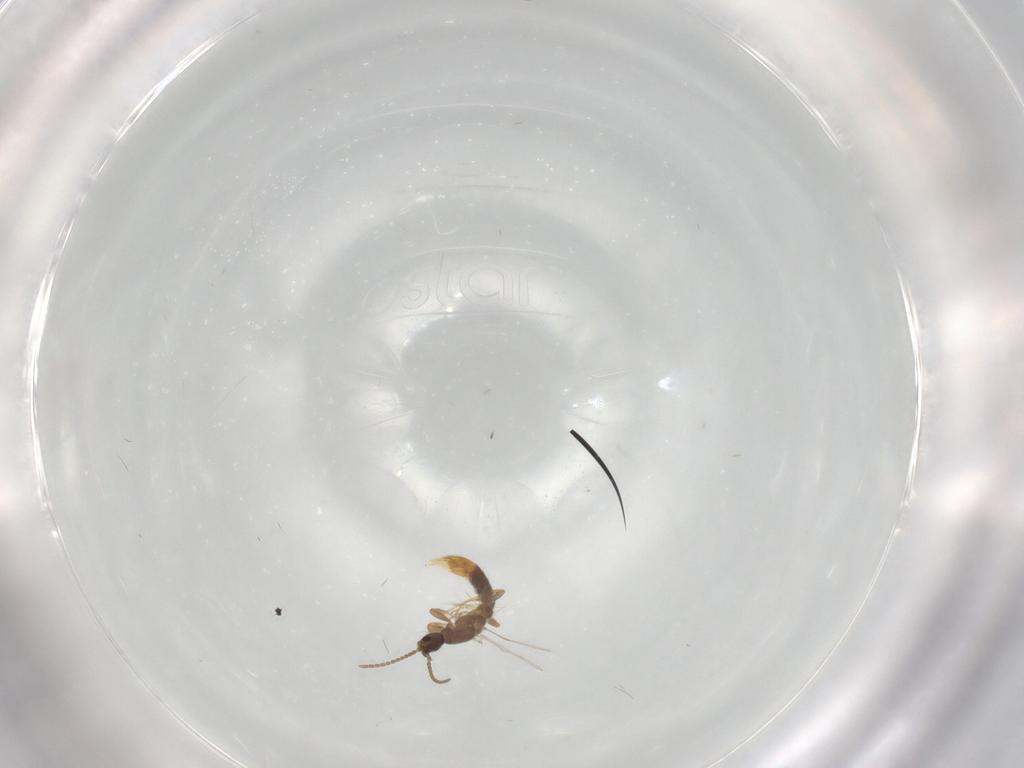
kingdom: Animalia
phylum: Arthropoda
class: Insecta
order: Hymenoptera
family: Formicidae
